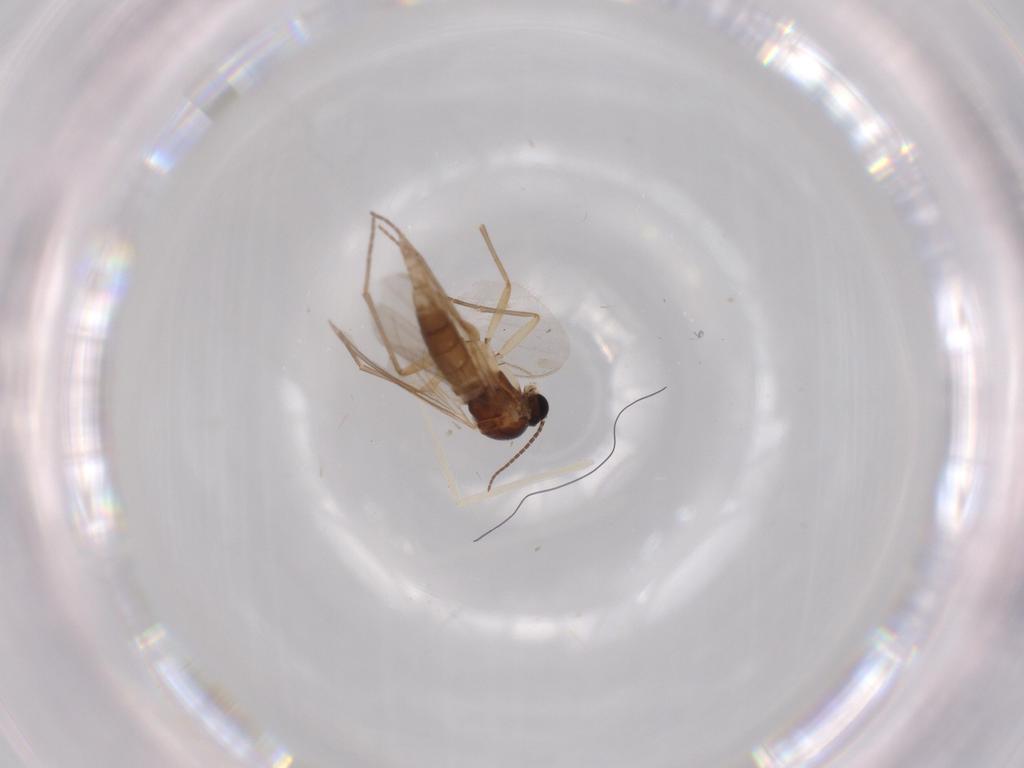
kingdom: Animalia
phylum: Arthropoda
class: Insecta
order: Diptera
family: Sciaridae
